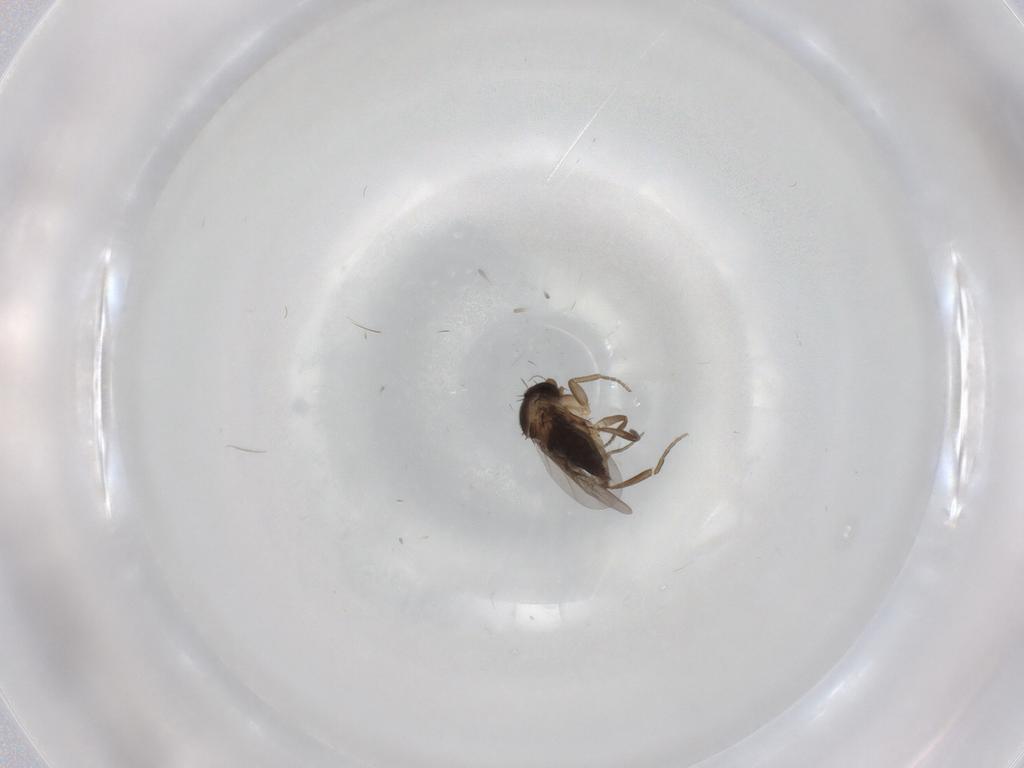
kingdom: Animalia
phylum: Arthropoda
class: Insecta
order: Diptera
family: Phoridae
